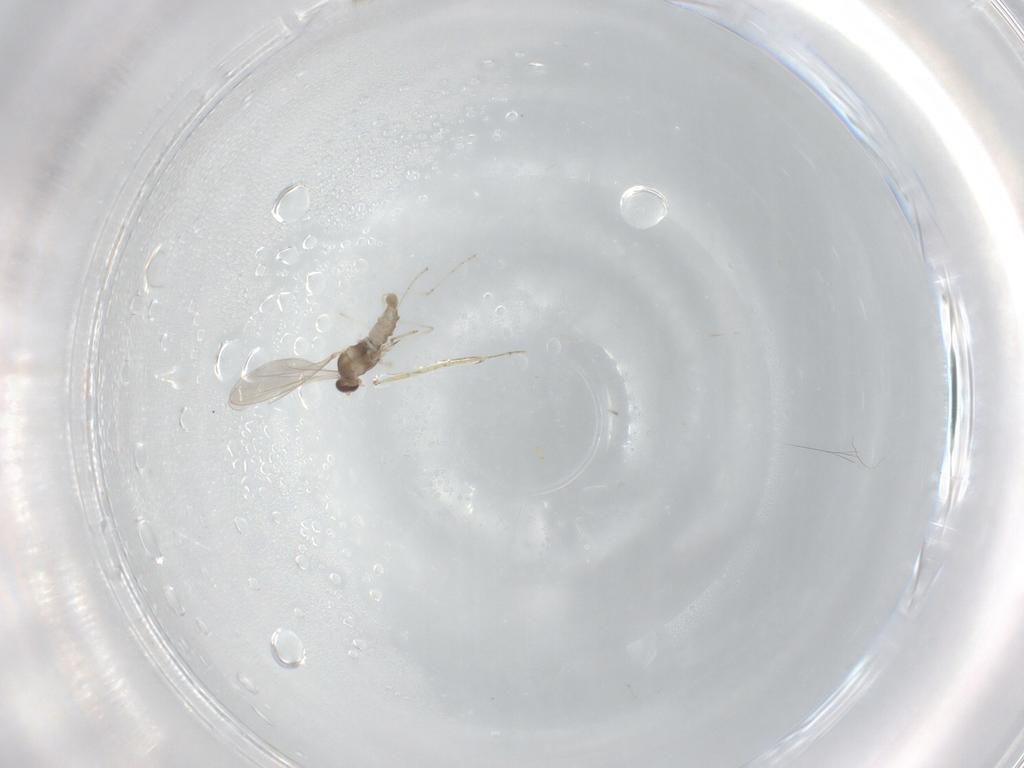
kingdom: Animalia
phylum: Arthropoda
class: Insecta
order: Diptera
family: Cecidomyiidae
